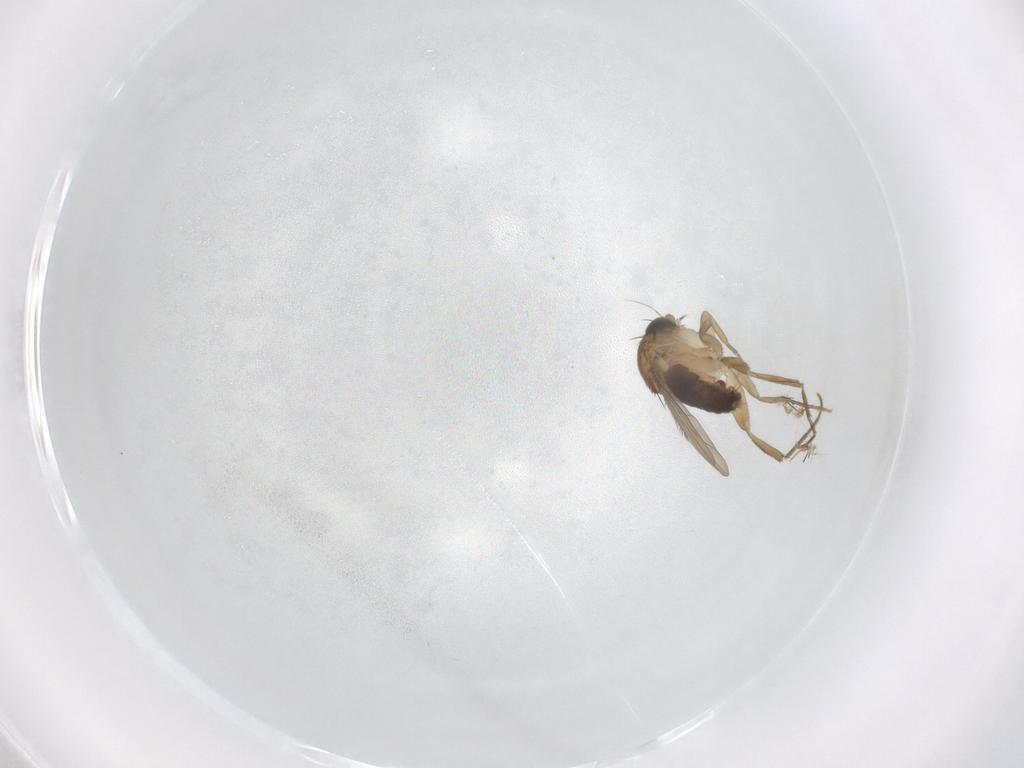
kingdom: Animalia
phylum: Arthropoda
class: Insecta
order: Diptera
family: Phoridae
